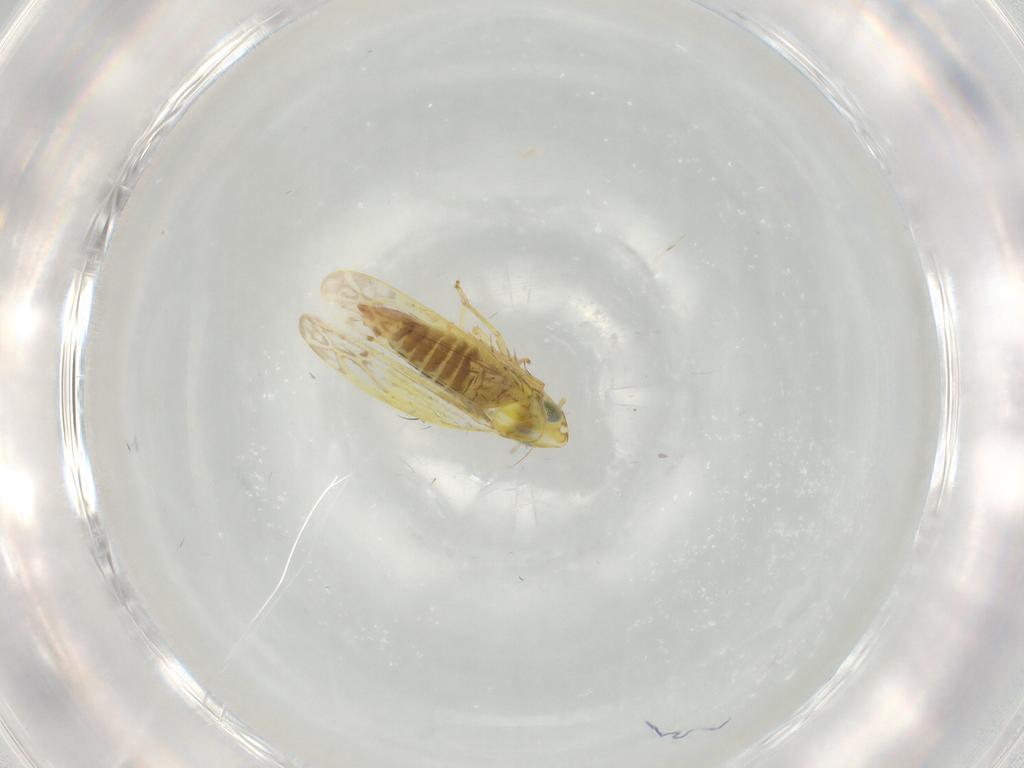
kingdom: Animalia
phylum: Arthropoda
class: Insecta
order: Hemiptera
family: Cicadellidae
